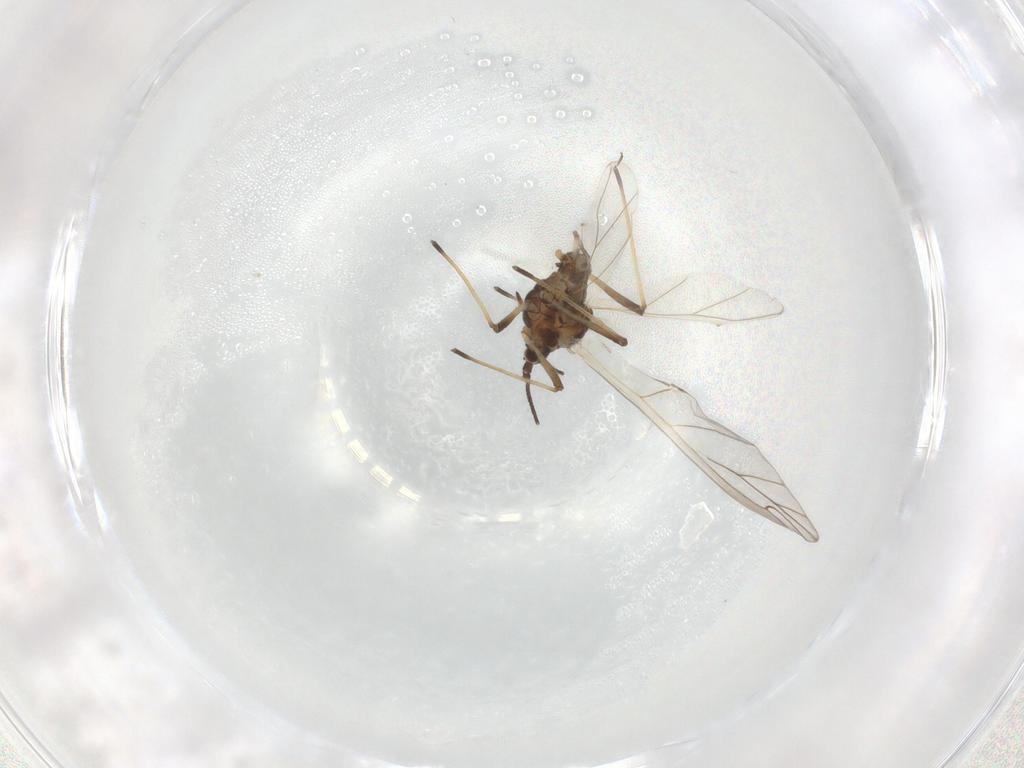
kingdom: Animalia
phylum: Arthropoda
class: Insecta
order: Hemiptera
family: Aphididae
